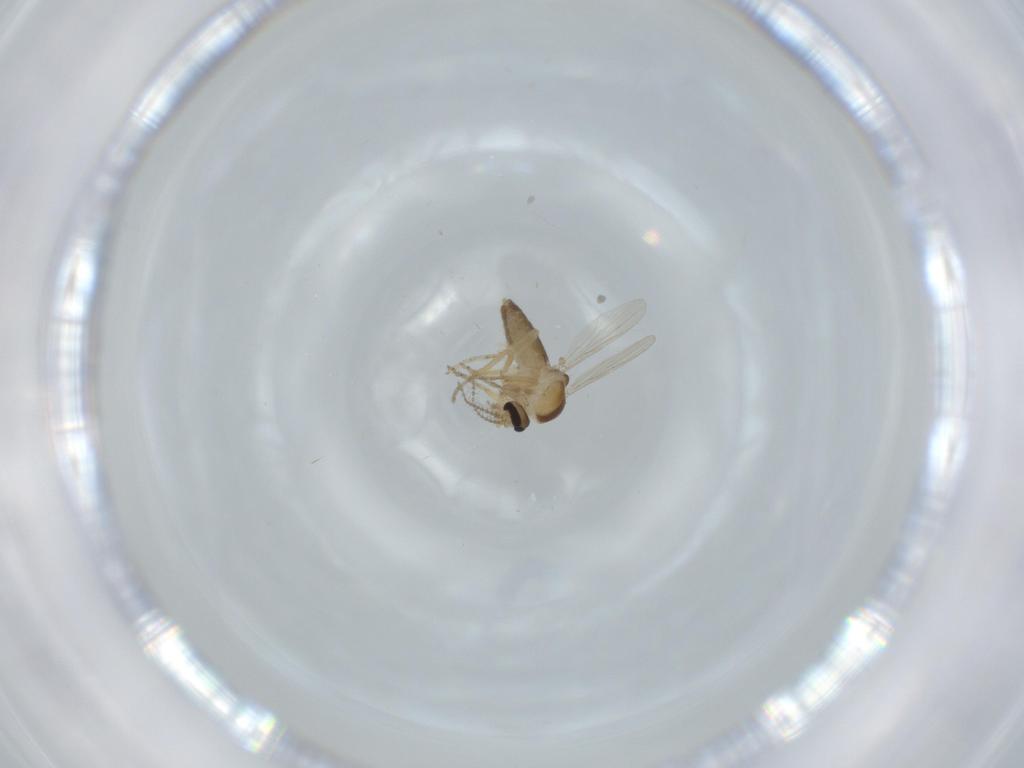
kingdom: Animalia
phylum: Arthropoda
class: Insecta
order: Diptera
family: Ceratopogonidae
